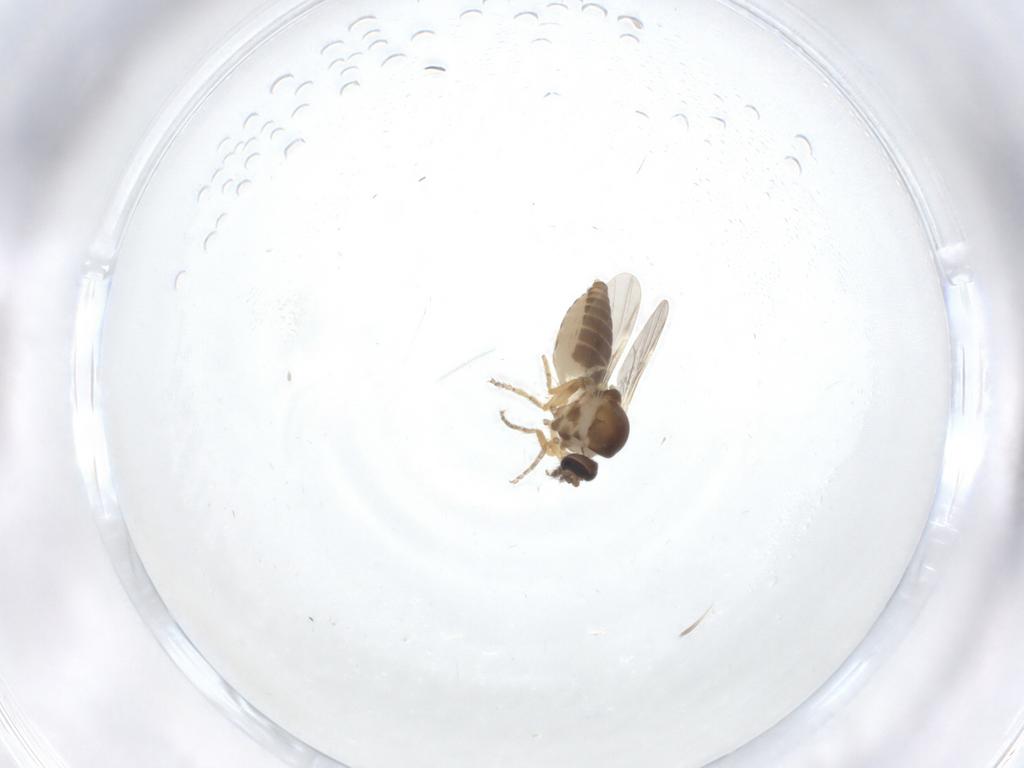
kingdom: Animalia
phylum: Arthropoda
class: Insecta
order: Diptera
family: Ceratopogonidae
